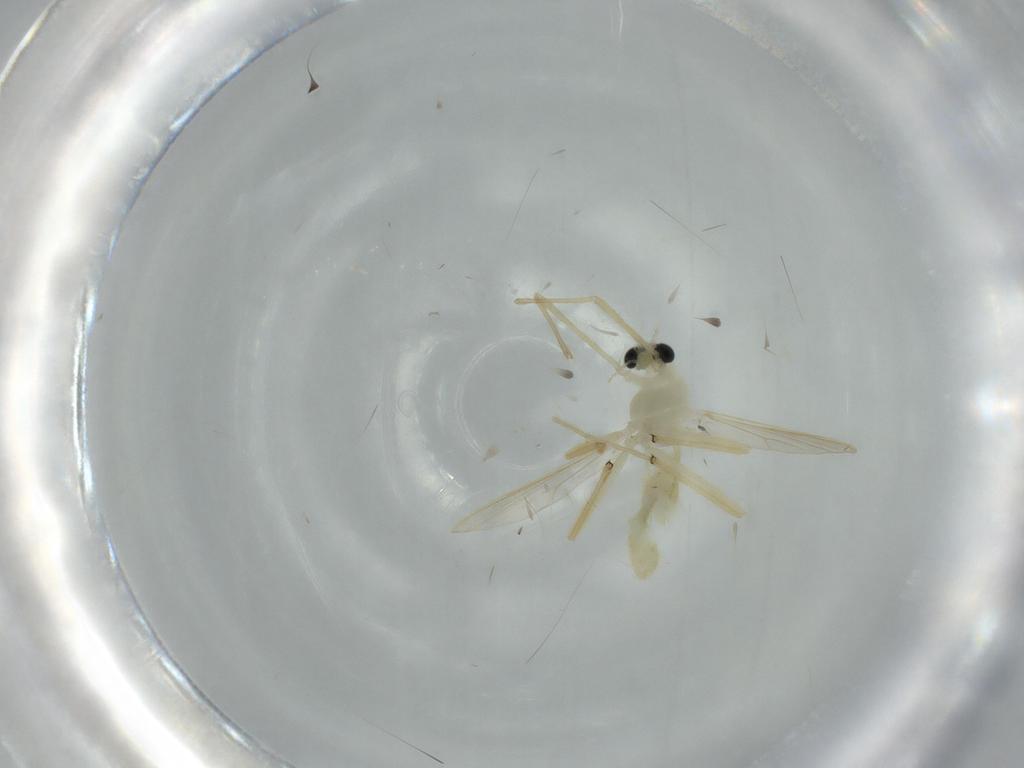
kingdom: Animalia
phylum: Arthropoda
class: Insecta
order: Diptera
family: Chironomidae
